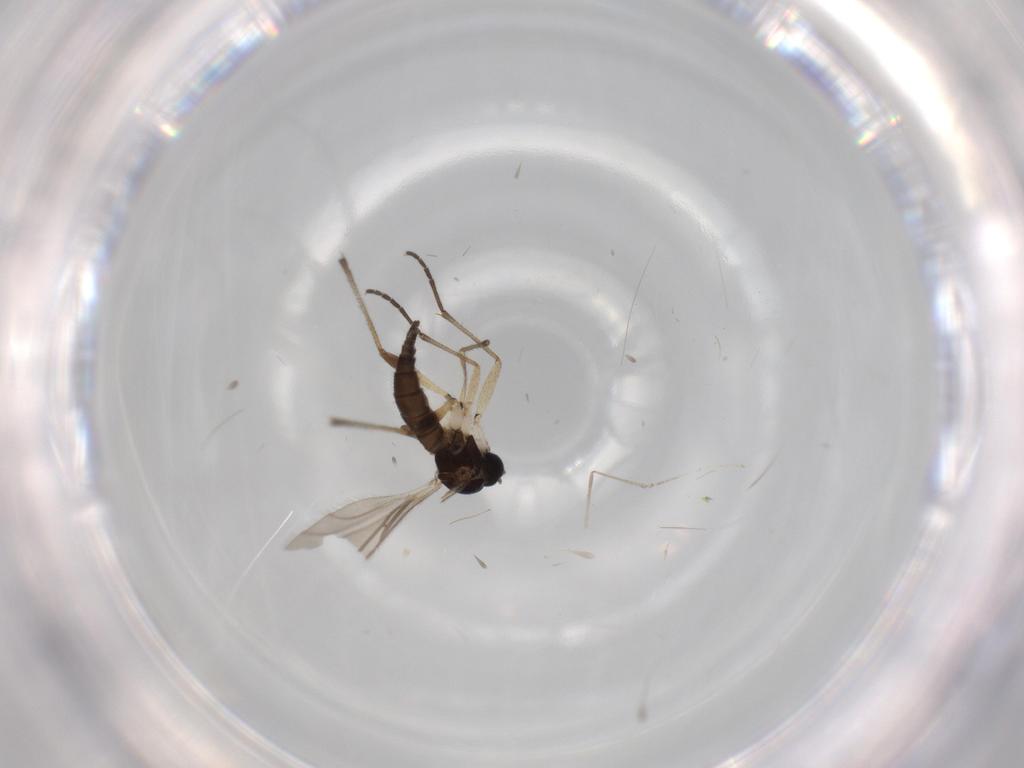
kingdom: Animalia
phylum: Arthropoda
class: Insecta
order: Diptera
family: Sciaridae
